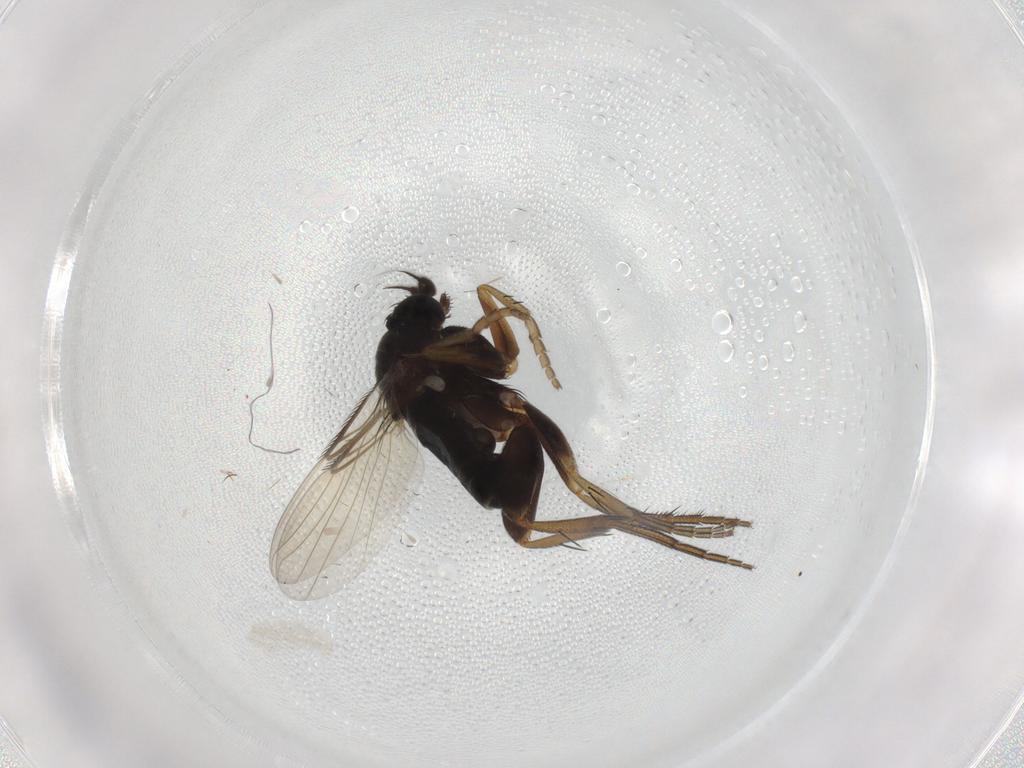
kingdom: Animalia
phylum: Arthropoda
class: Insecta
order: Diptera
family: Phoridae
